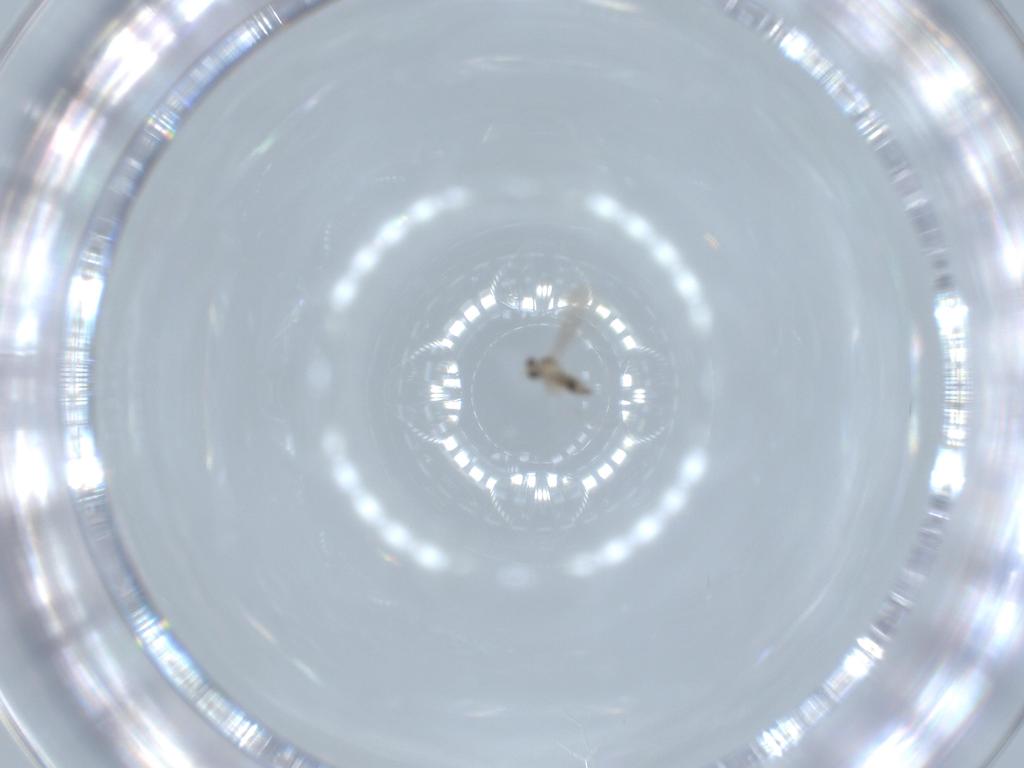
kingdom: Animalia
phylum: Arthropoda
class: Insecta
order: Diptera
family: Cecidomyiidae
